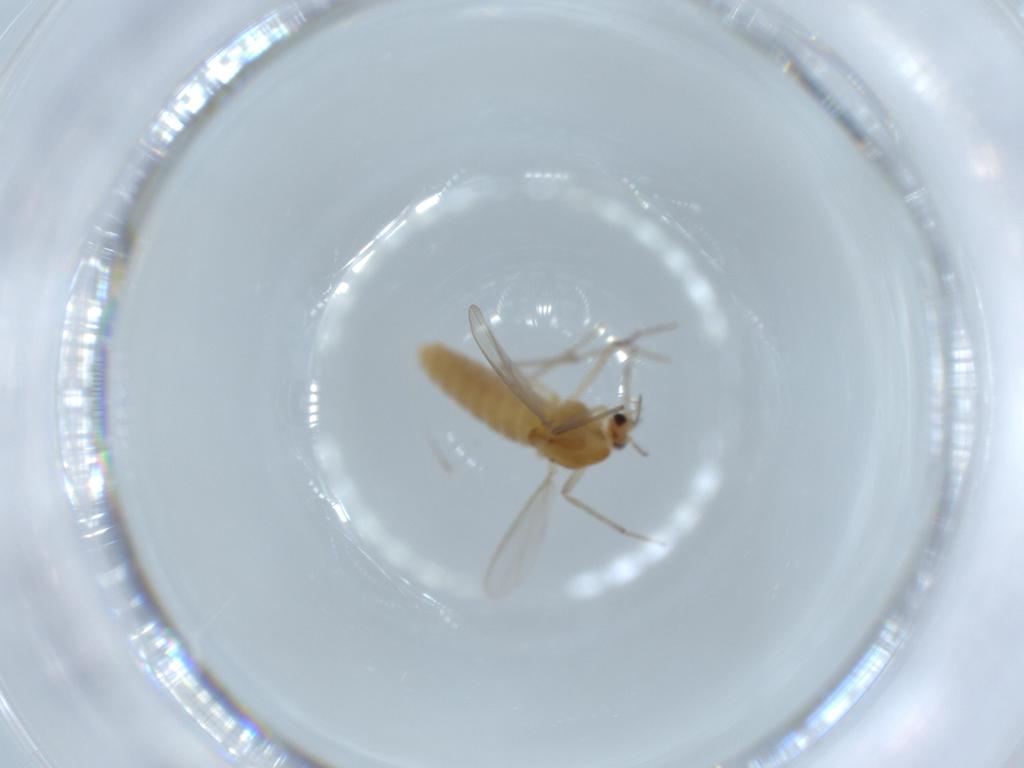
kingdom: Animalia
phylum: Arthropoda
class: Insecta
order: Diptera
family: Chironomidae
